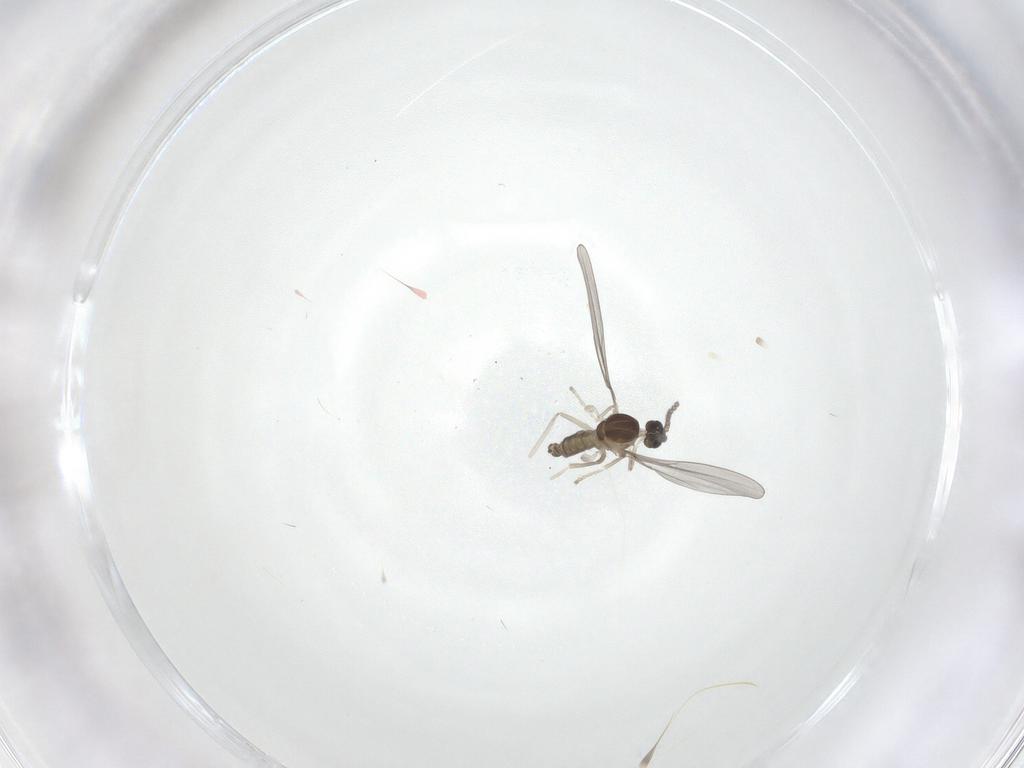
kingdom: Animalia
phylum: Arthropoda
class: Insecta
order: Diptera
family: Cecidomyiidae
